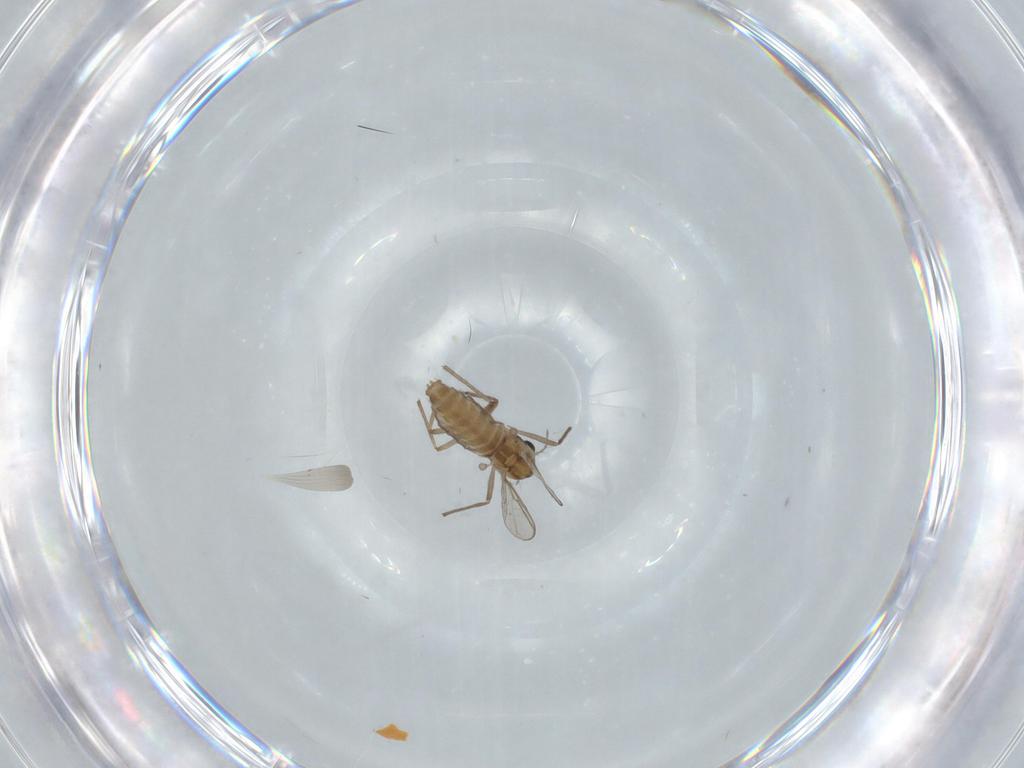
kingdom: Animalia
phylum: Arthropoda
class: Insecta
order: Diptera
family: Chironomidae
